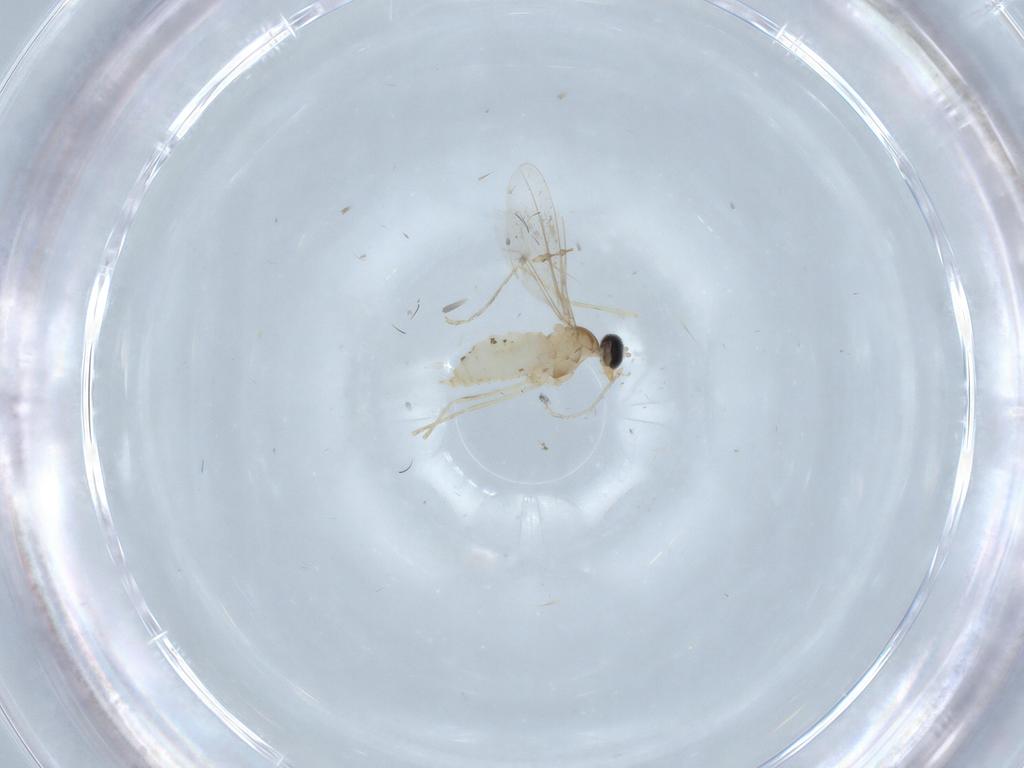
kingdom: Animalia
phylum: Arthropoda
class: Insecta
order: Diptera
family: Cecidomyiidae
